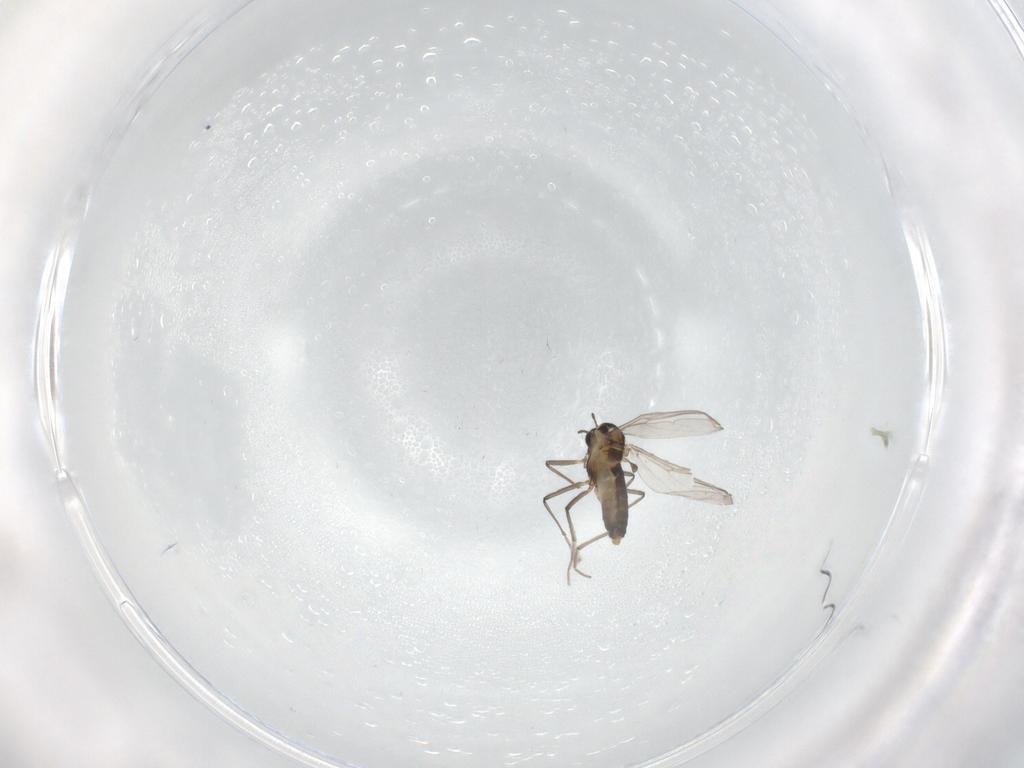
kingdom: Animalia
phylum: Arthropoda
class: Insecta
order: Diptera
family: Chironomidae
